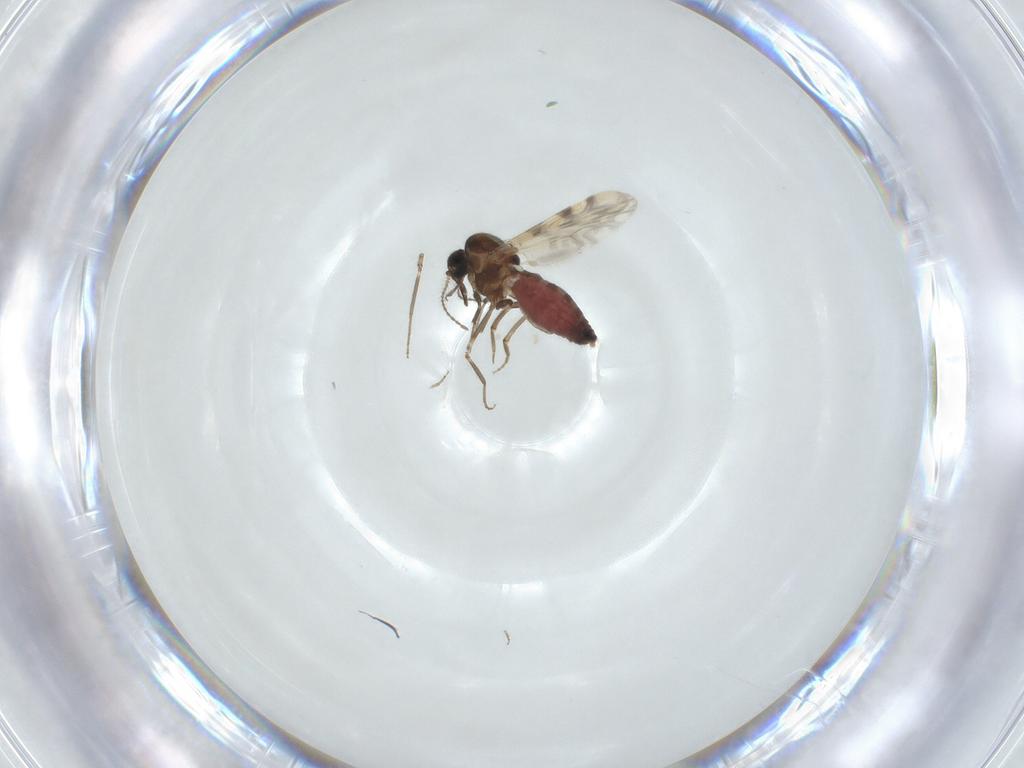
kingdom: Animalia
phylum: Arthropoda
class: Insecta
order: Diptera
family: Ceratopogonidae
